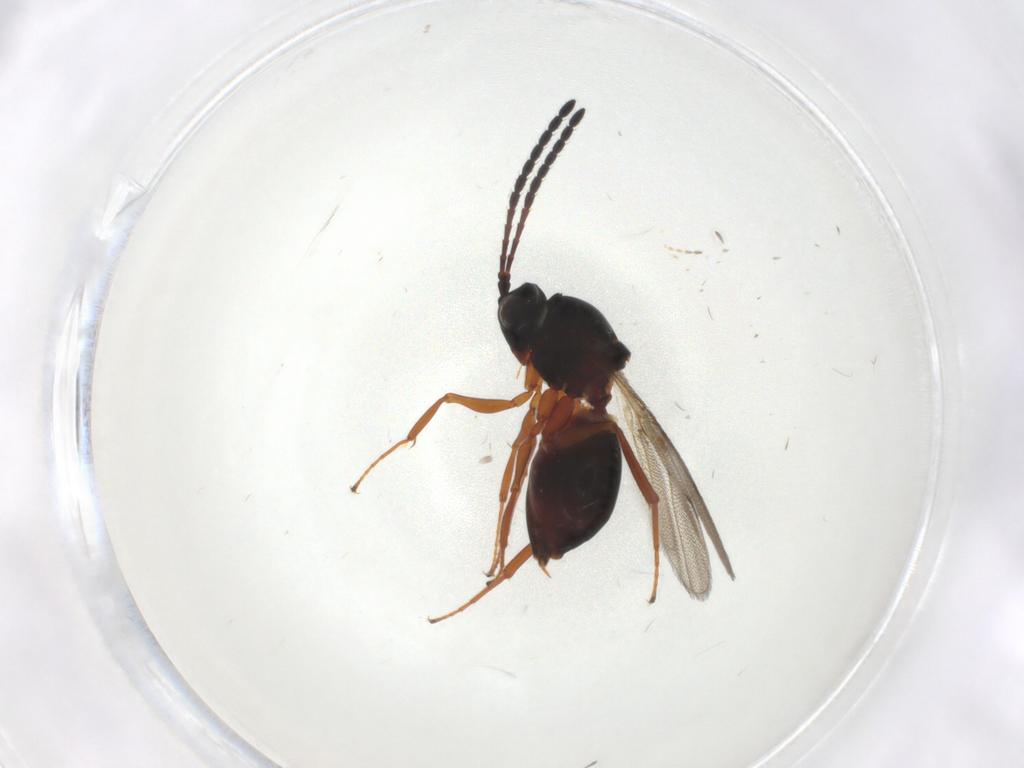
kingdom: Animalia
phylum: Arthropoda
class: Insecta
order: Hymenoptera
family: Figitidae
